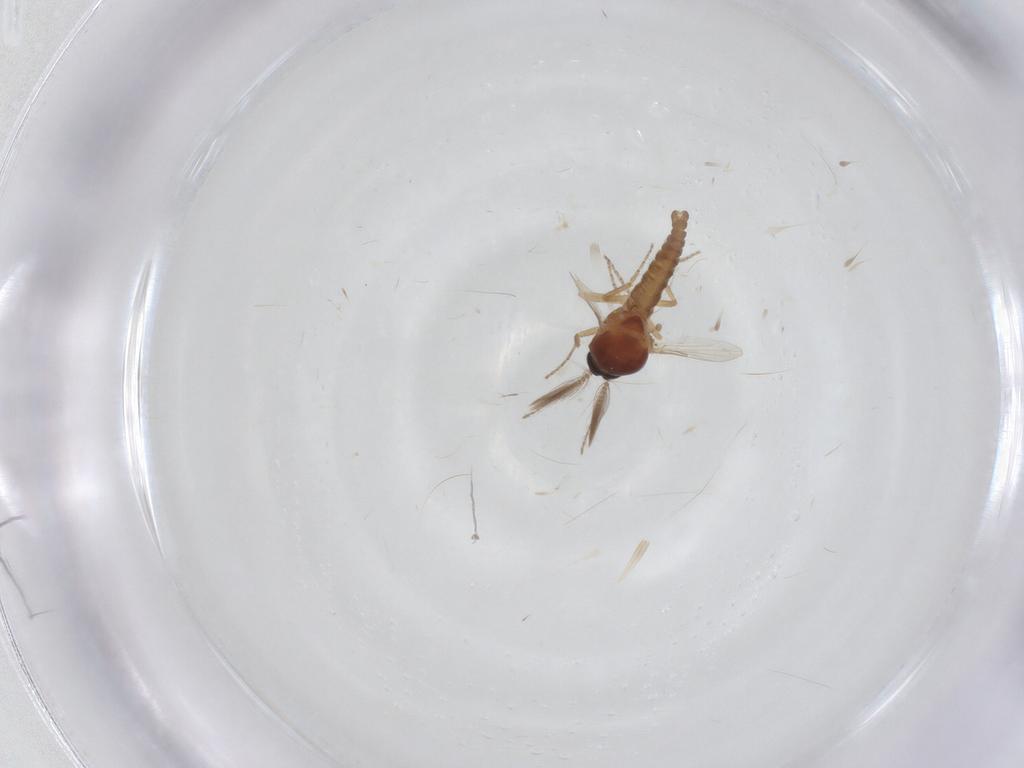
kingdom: Animalia
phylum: Arthropoda
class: Insecta
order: Diptera
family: Ceratopogonidae
